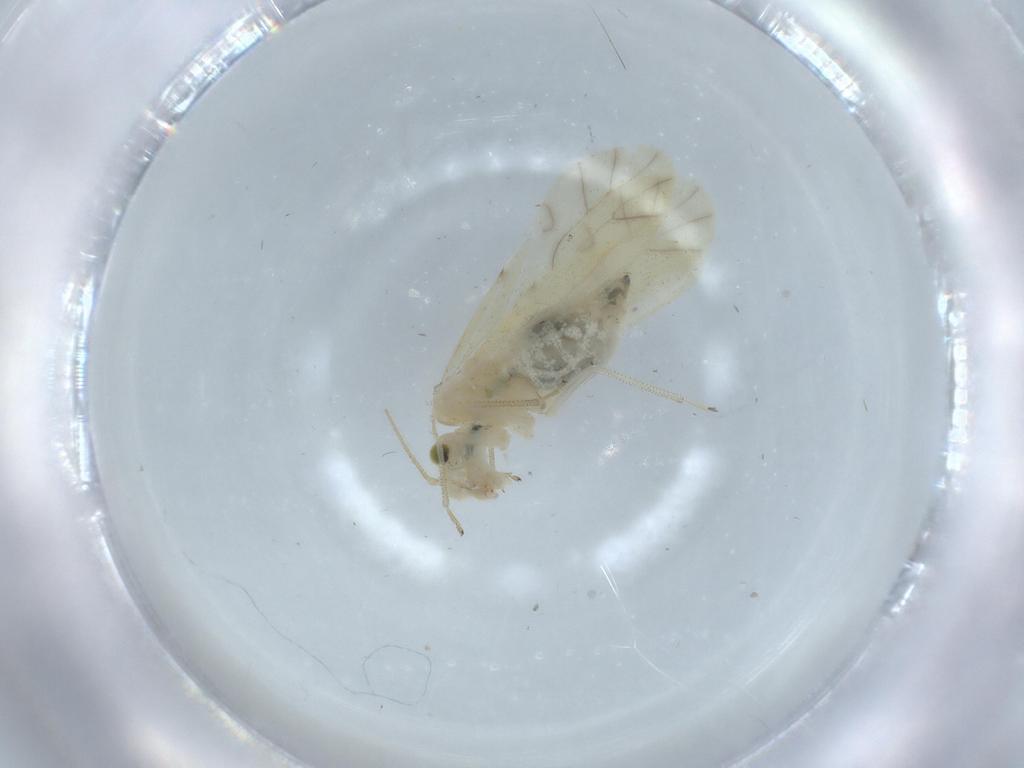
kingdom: Animalia
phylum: Arthropoda
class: Insecta
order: Psocodea
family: Caeciliusidae
